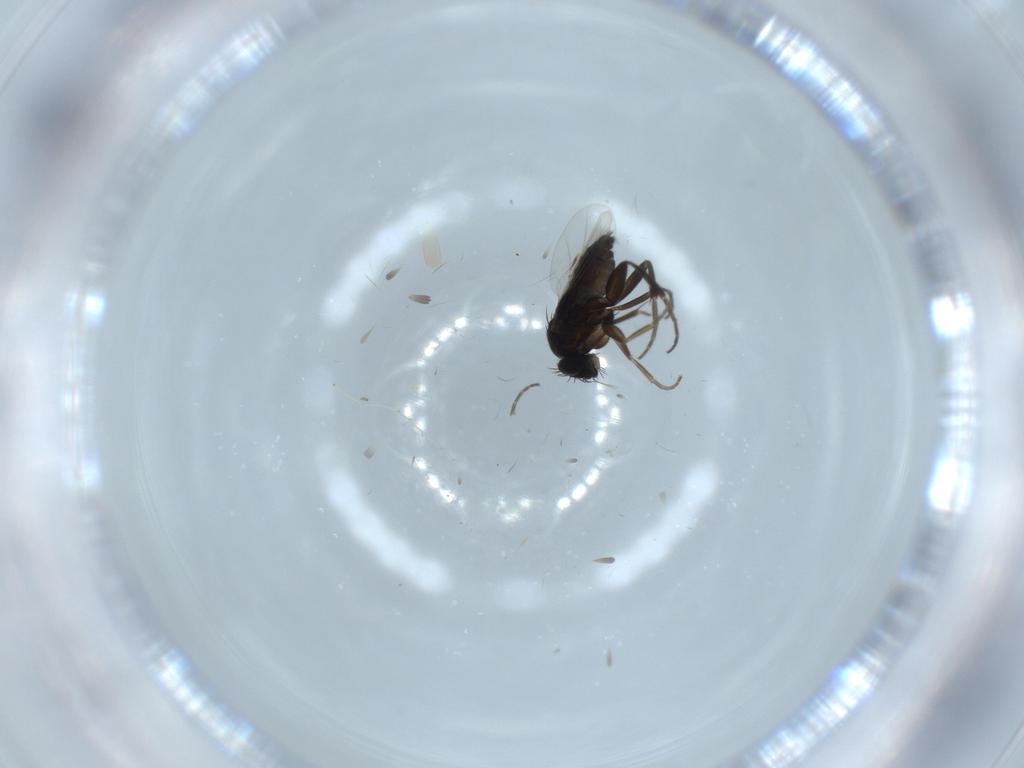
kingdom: Animalia
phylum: Arthropoda
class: Insecta
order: Diptera
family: Phoridae
